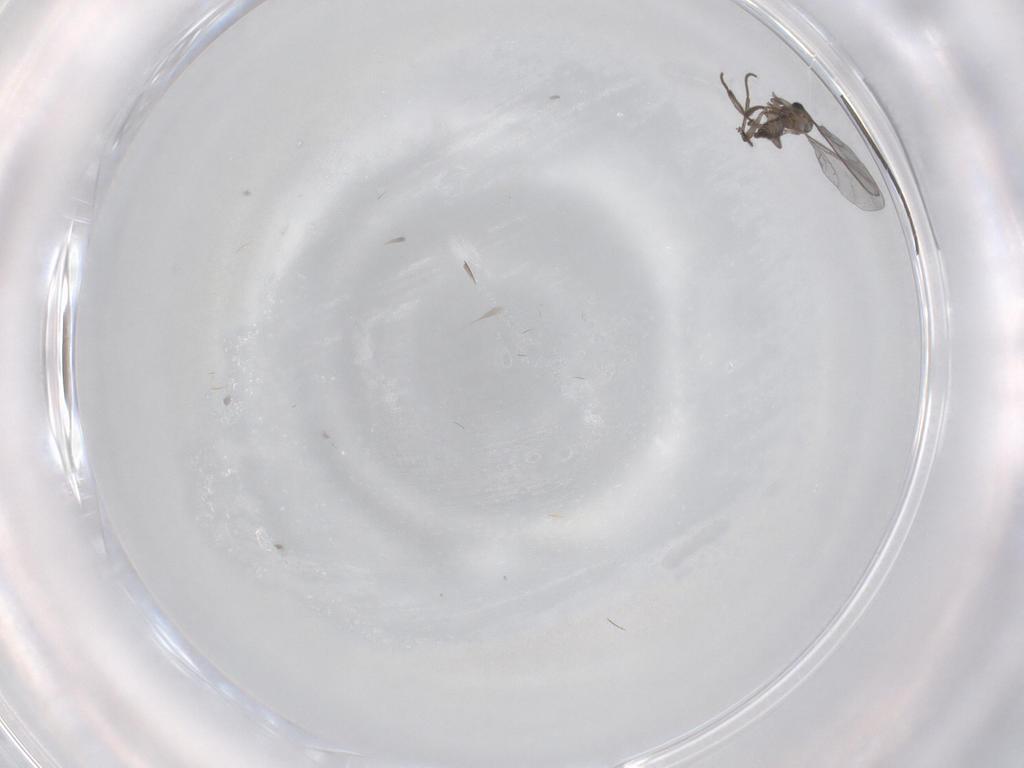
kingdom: Animalia
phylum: Arthropoda
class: Insecta
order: Diptera
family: Sciaridae
